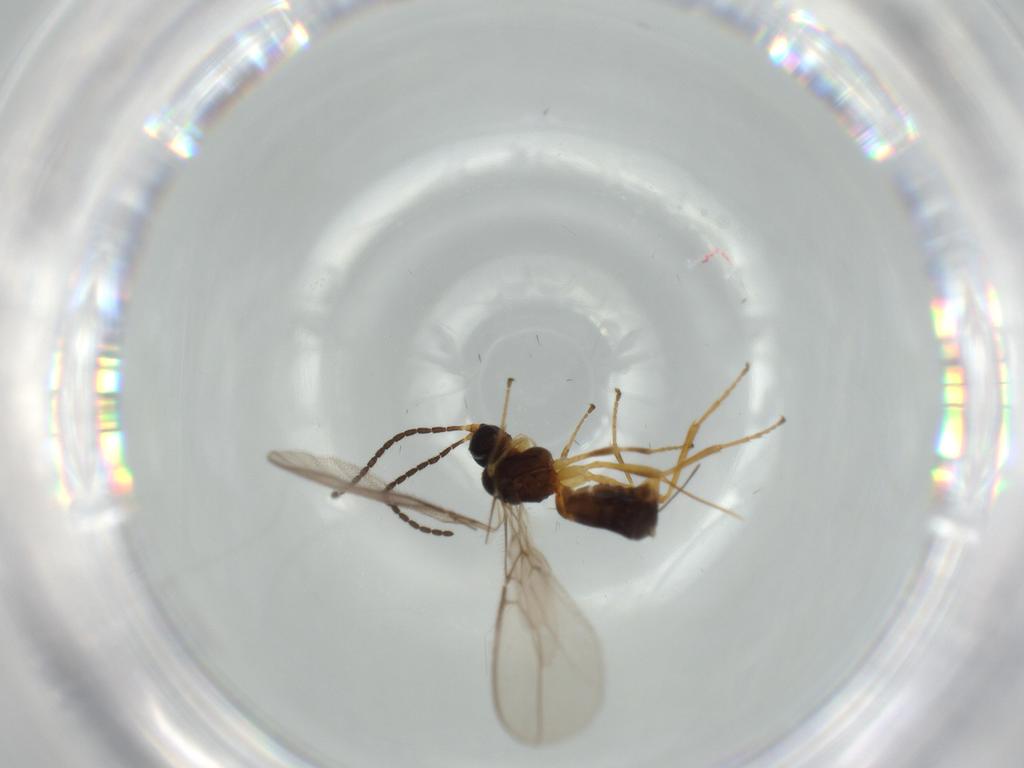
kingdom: Animalia
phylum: Arthropoda
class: Insecta
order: Hymenoptera
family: Braconidae
